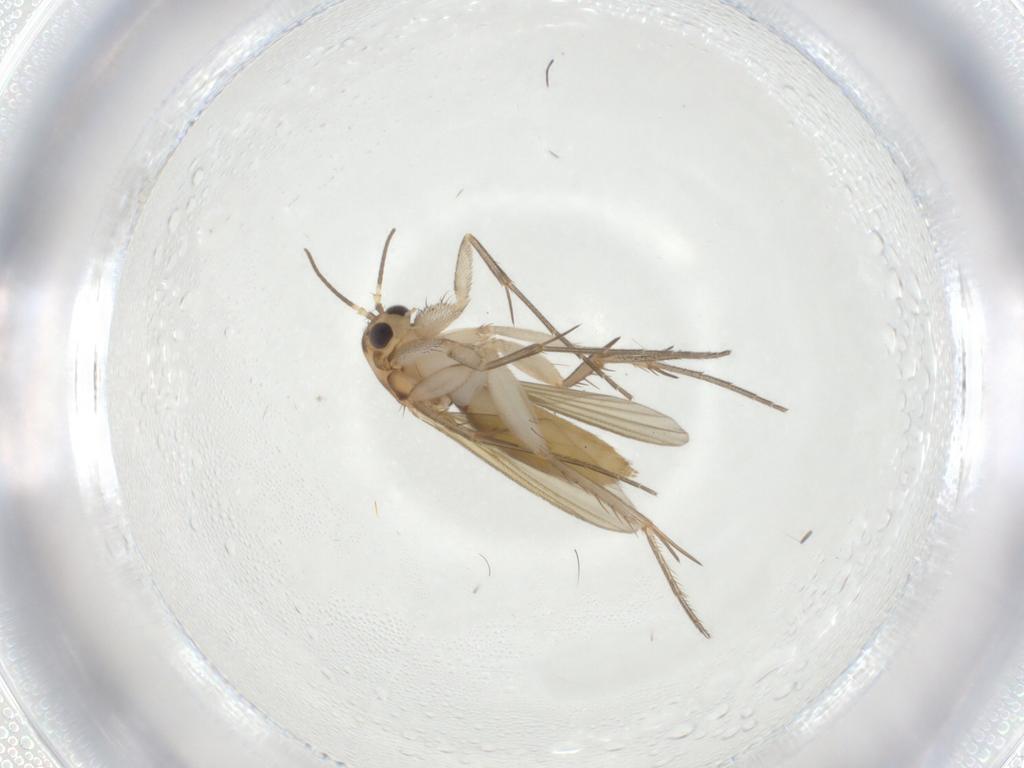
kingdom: Animalia
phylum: Arthropoda
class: Insecta
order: Diptera
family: Mycetophilidae
